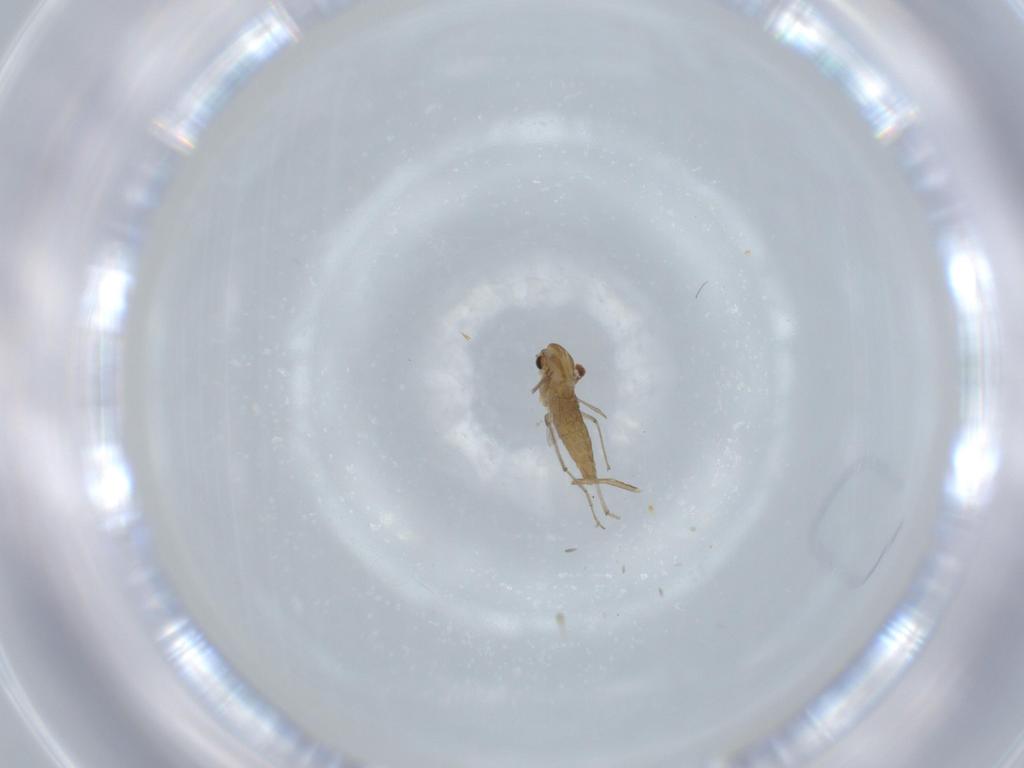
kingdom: Animalia
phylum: Arthropoda
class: Insecta
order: Diptera
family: Chironomidae
